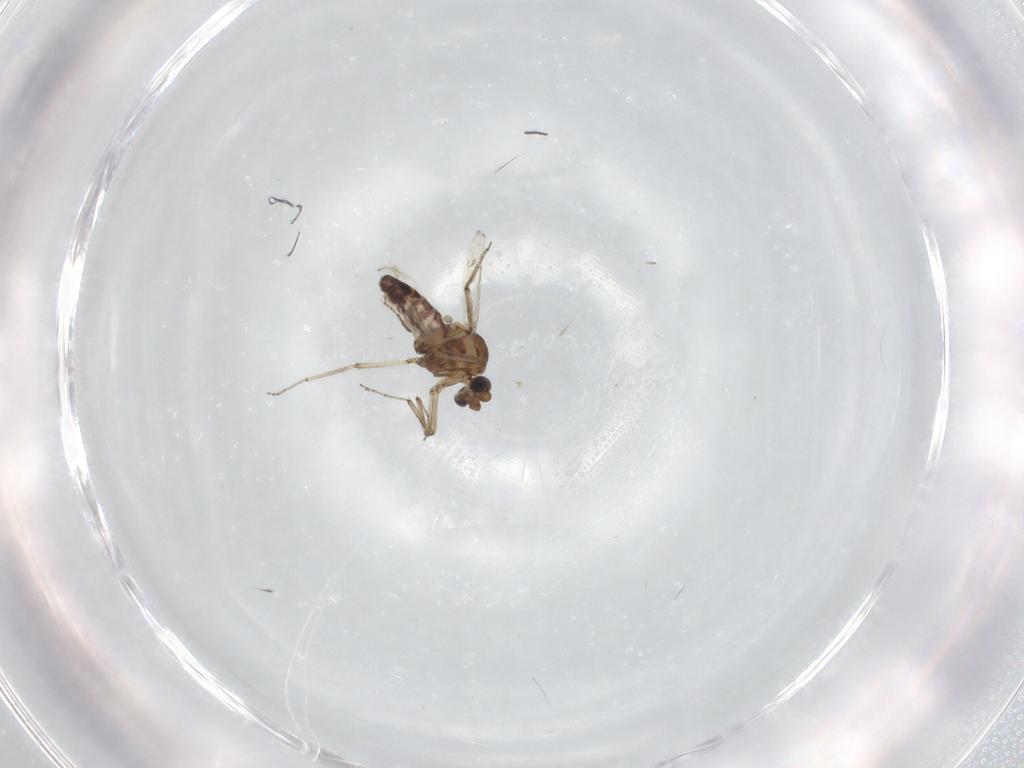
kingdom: Animalia
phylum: Arthropoda
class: Insecta
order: Diptera
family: Ceratopogonidae
